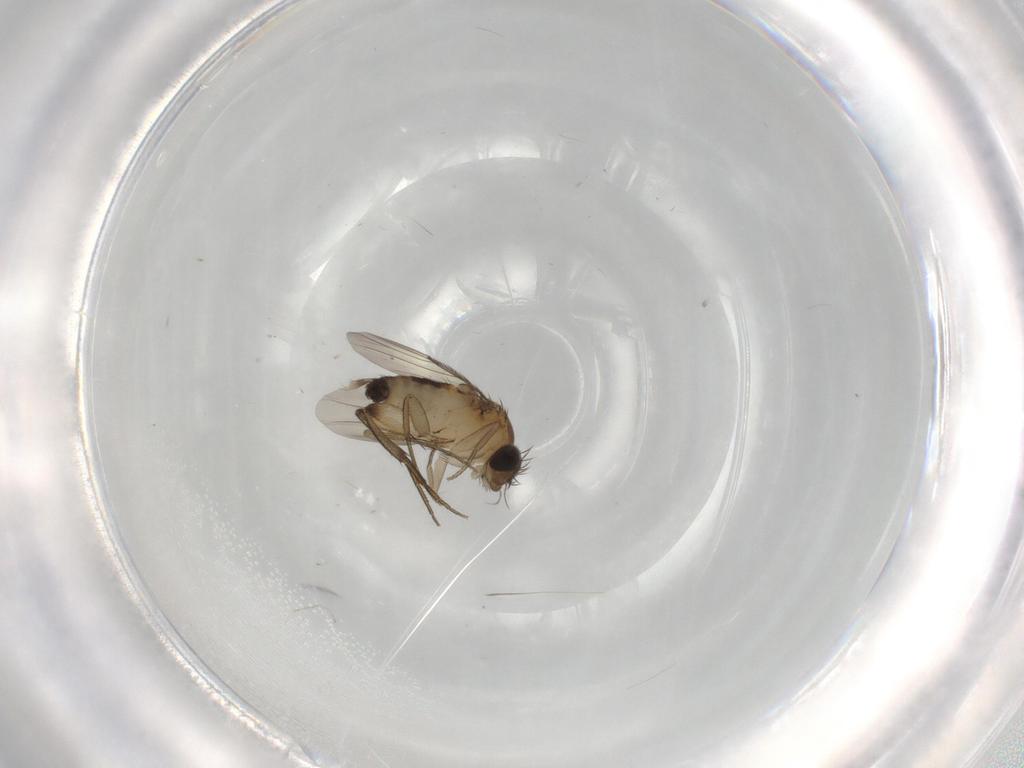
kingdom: Animalia
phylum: Arthropoda
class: Insecta
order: Diptera
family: Phoridae
